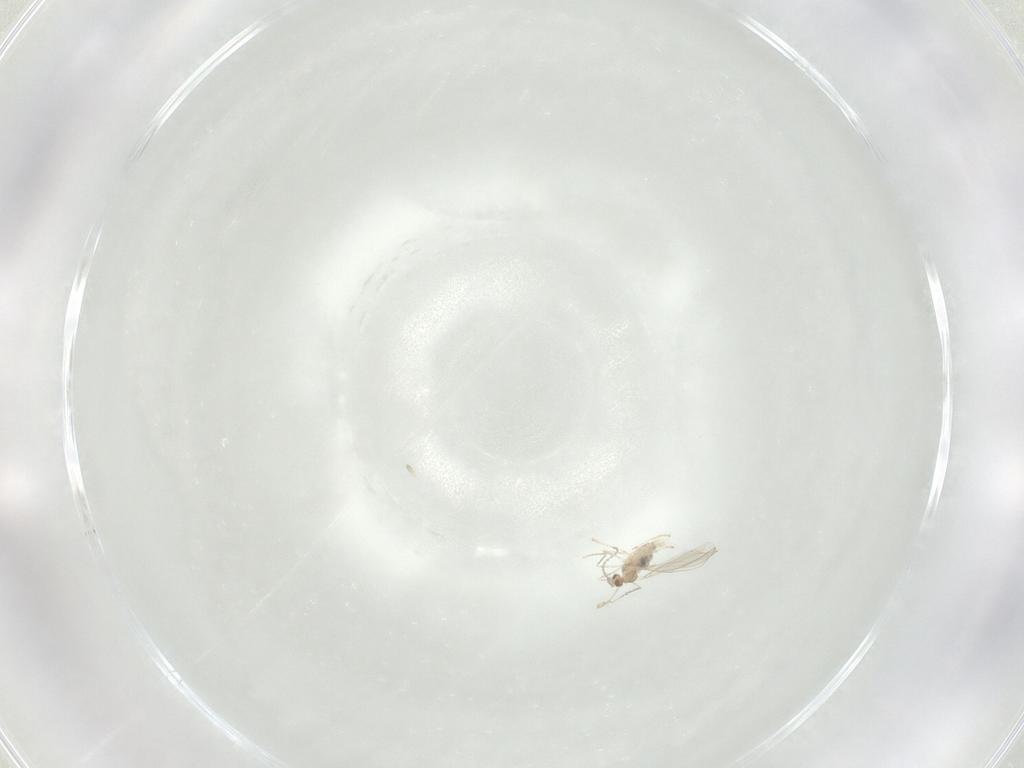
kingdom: Animalia
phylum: Arthropoda
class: Insecta
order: Diptera
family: Cecidomyiidae
